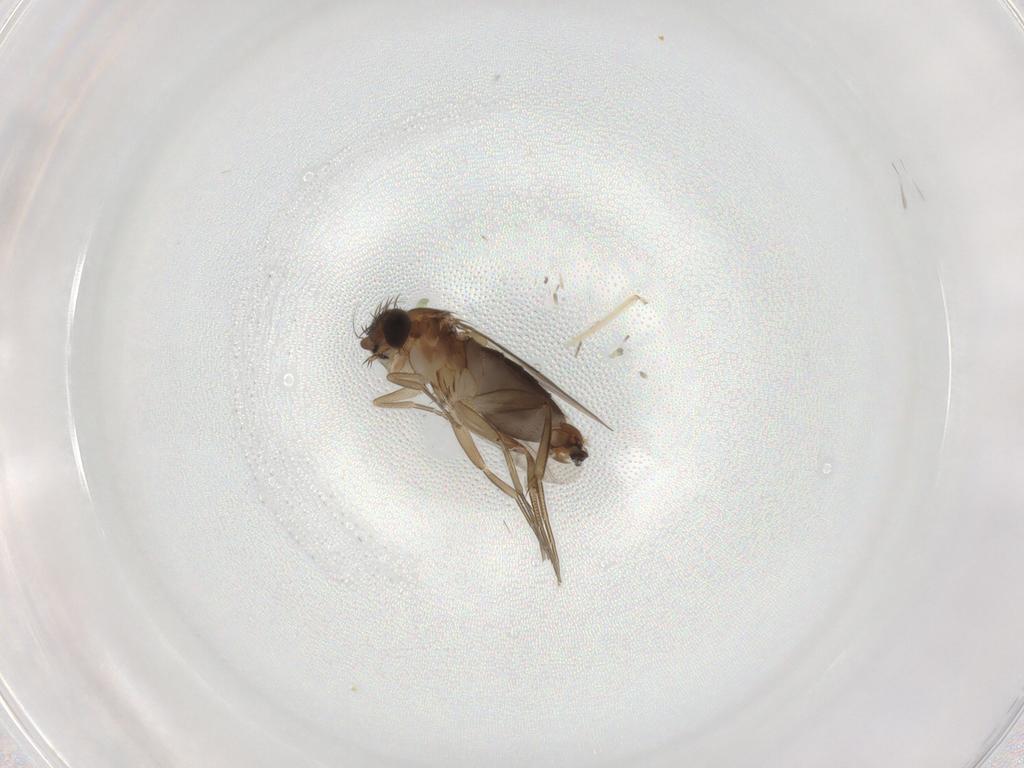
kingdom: Animalia
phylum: Arthropoda
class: Insecta
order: Diptera
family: Phoridae
